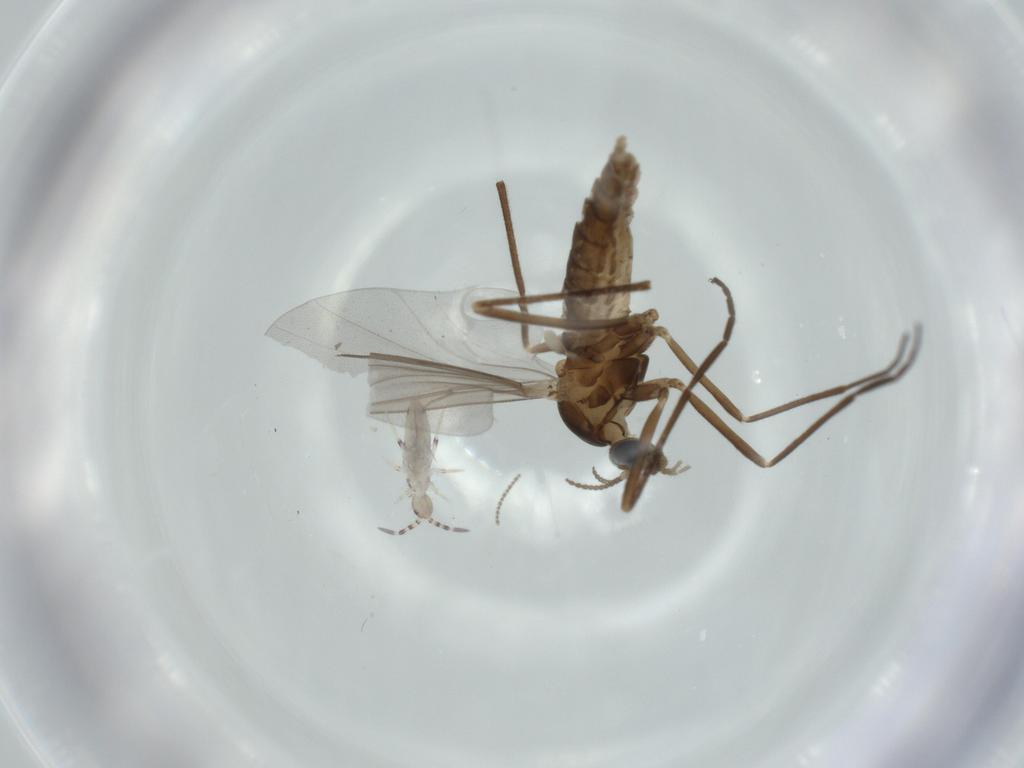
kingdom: Animalia
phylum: Arthropoda
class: Insecta
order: Diptera
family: Cecidomyiidae
